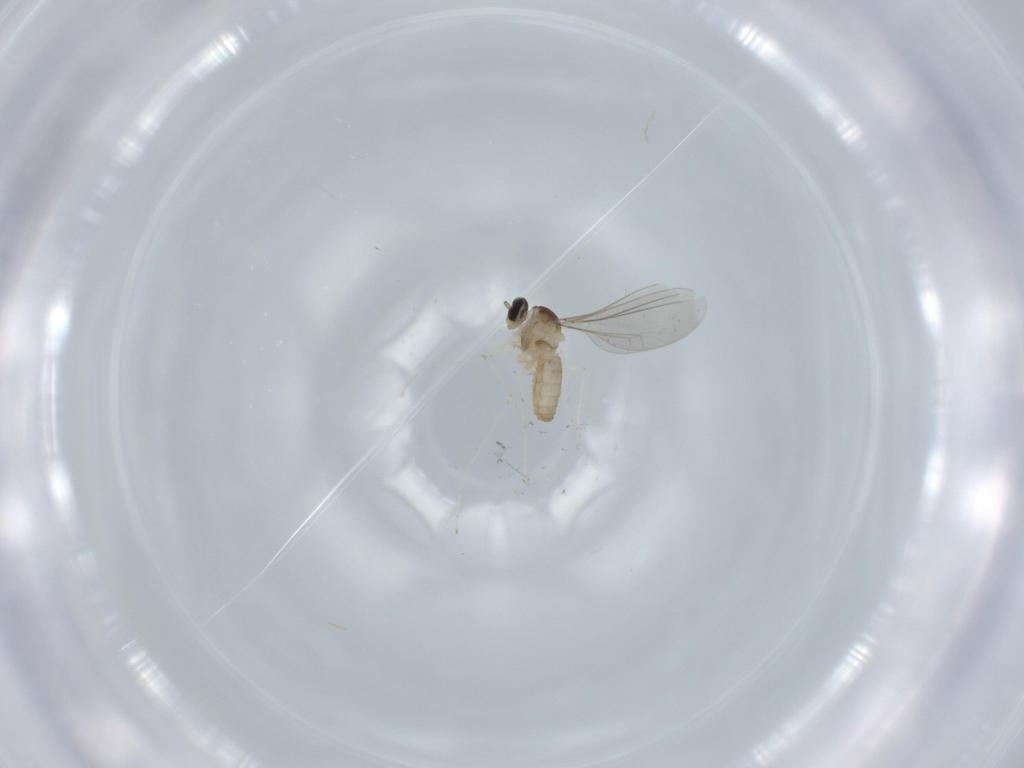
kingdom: Animalia
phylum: Arthropoda
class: Insecta
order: Diptera
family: Cecidomyiidae
